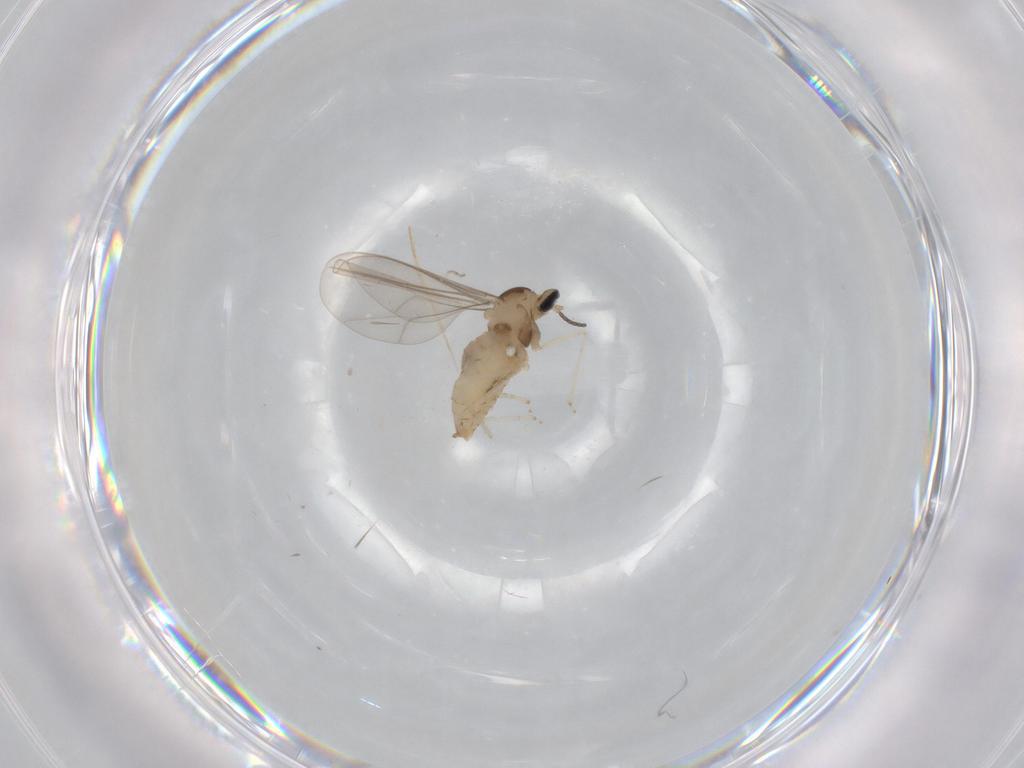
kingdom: Animalia
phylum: Arthropoda
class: Insecta
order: Diptera
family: Cecidomyiidae
